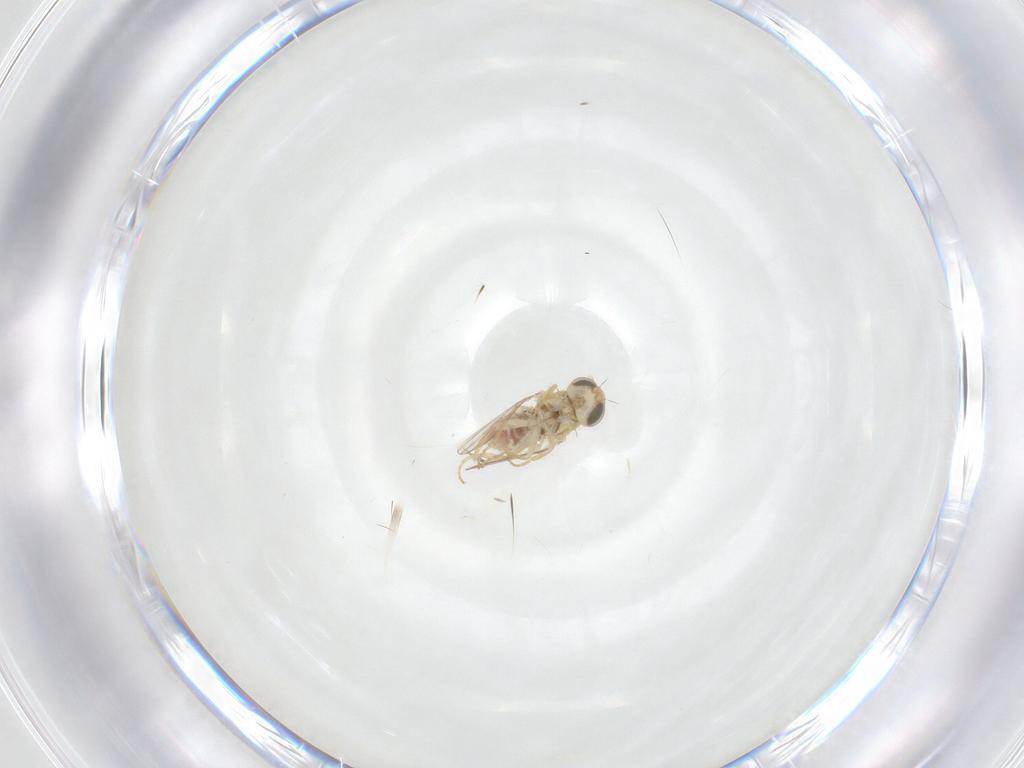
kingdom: Animalia
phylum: Arthropoda
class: Insecta
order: Diptera
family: Chyromyidae
